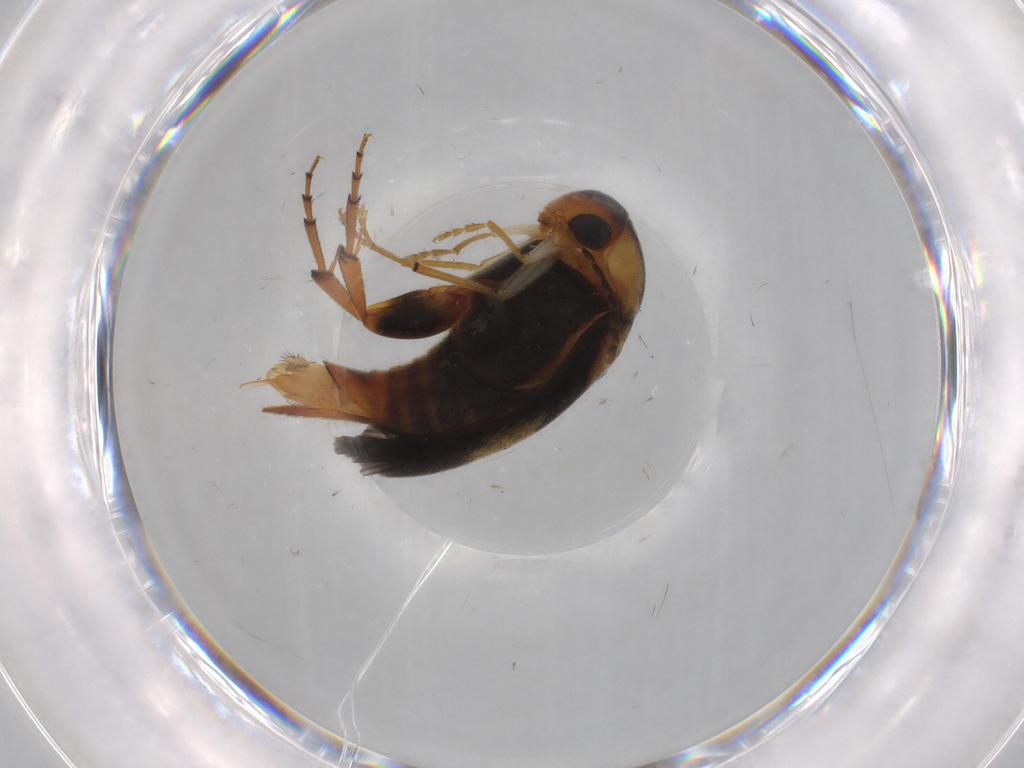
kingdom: Animalia
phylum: Arthropoda
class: Insecta
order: Coleoptera
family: Mordellidae
